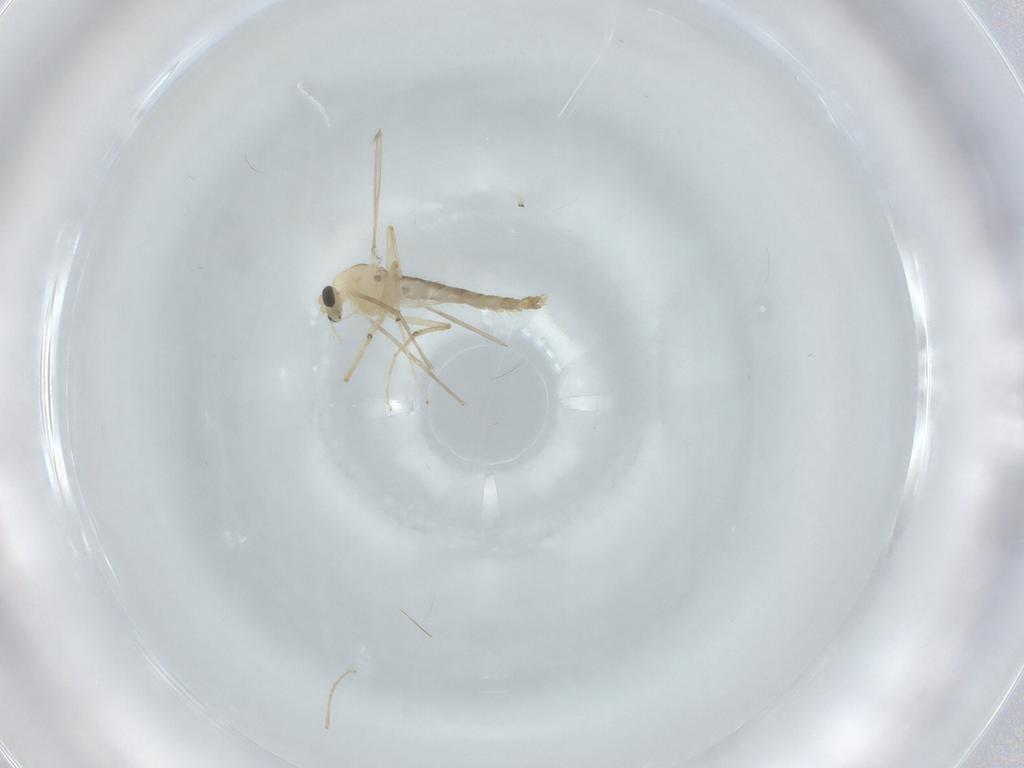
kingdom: Animalia
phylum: Arthropoda
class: Insecta
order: Diptera
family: Chironomidae
